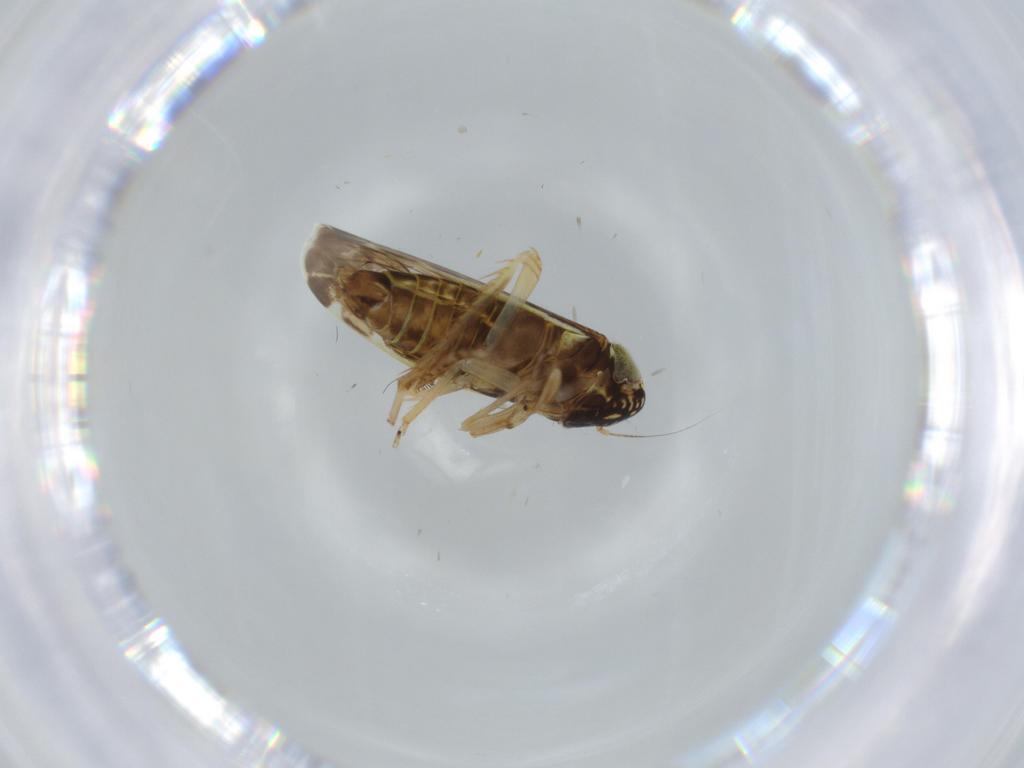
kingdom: Animalia
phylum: Arthropoda
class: Insecta
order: Hemiptera
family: Cicadellidae
